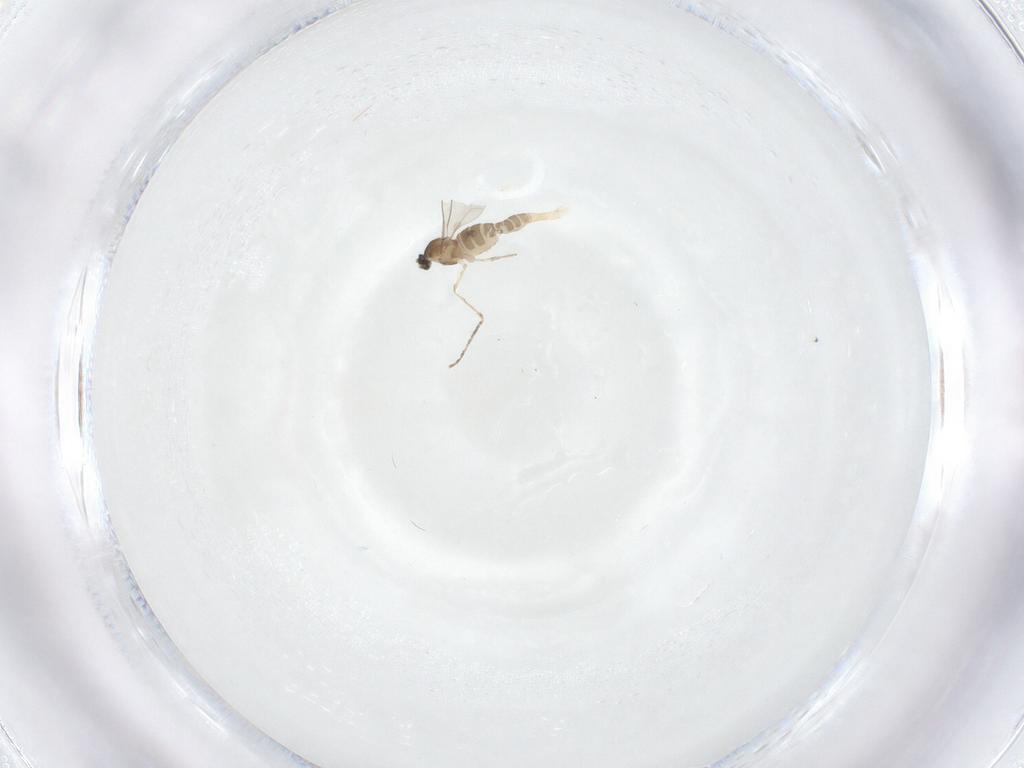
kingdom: Animalia
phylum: Arthropoda
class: Insecta
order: Diptera
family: Cecidomyiidae
